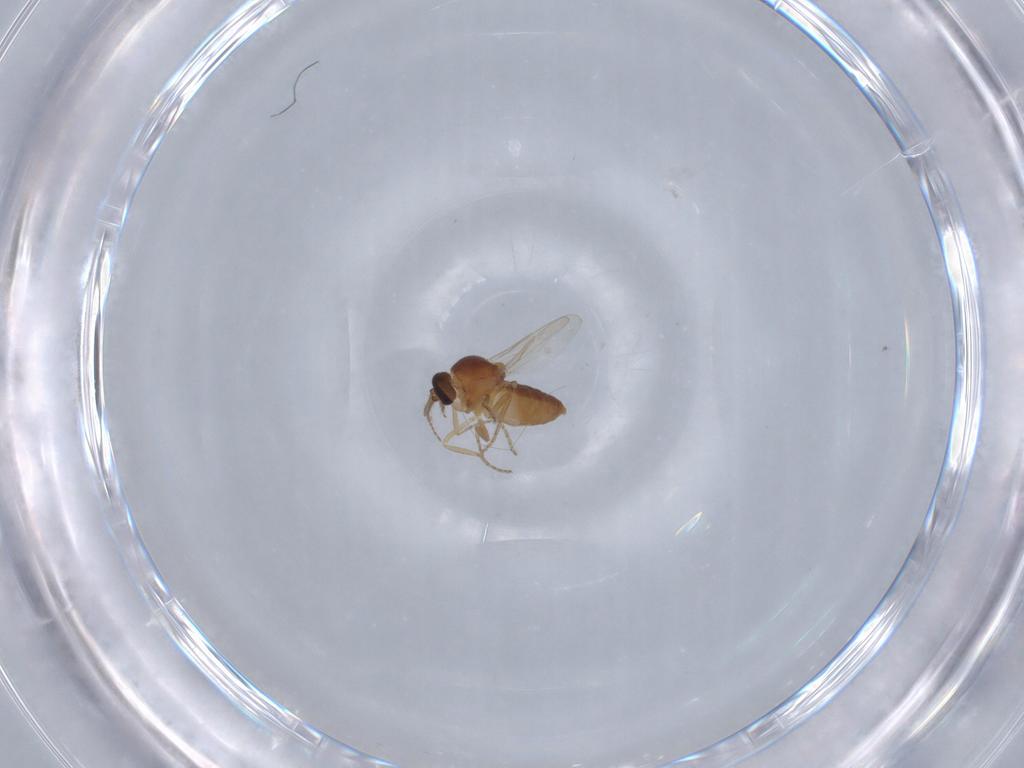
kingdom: Animalia
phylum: Arthropoda
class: Insecta
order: Diptera
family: Ceratopogonidae
